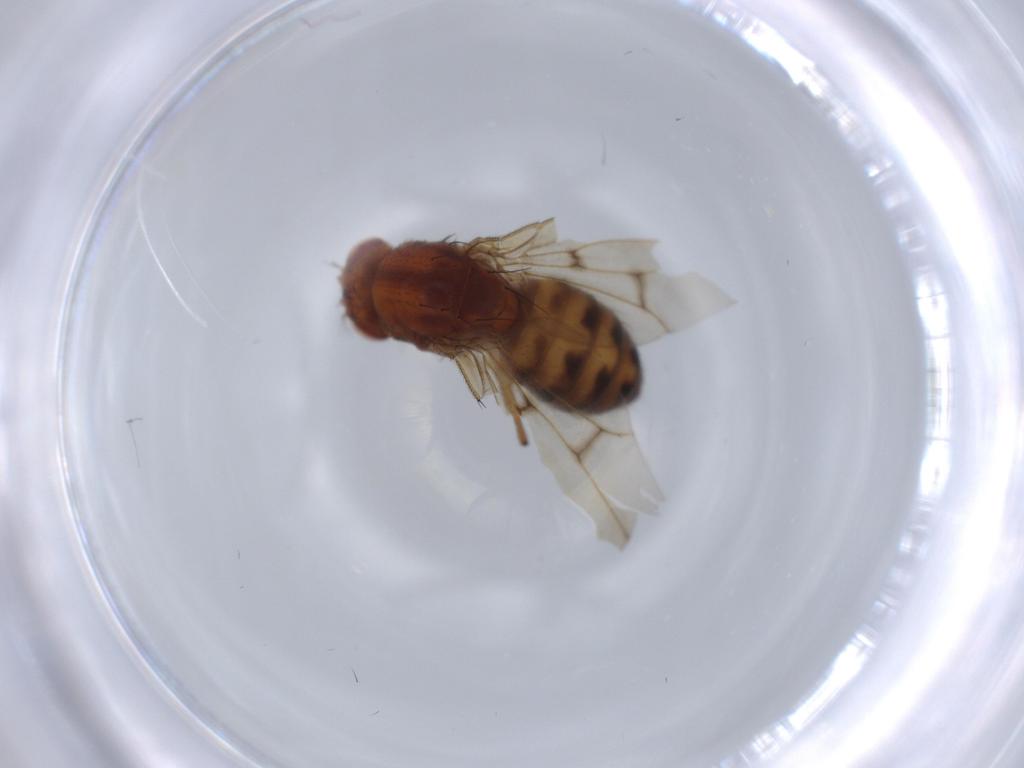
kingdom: Animalia
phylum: Arthropoda
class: Insecta
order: Diptera
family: Drosophilidae
